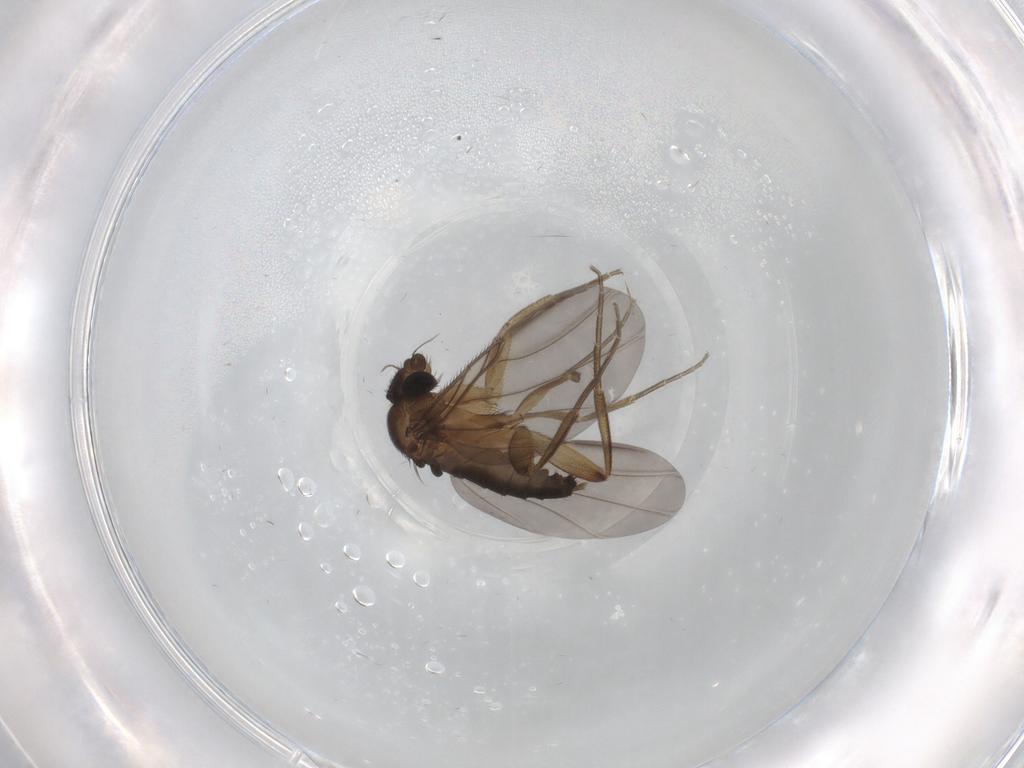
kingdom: Animalia
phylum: Arthropoda
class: Insecta
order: Diptera
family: Phoridae
